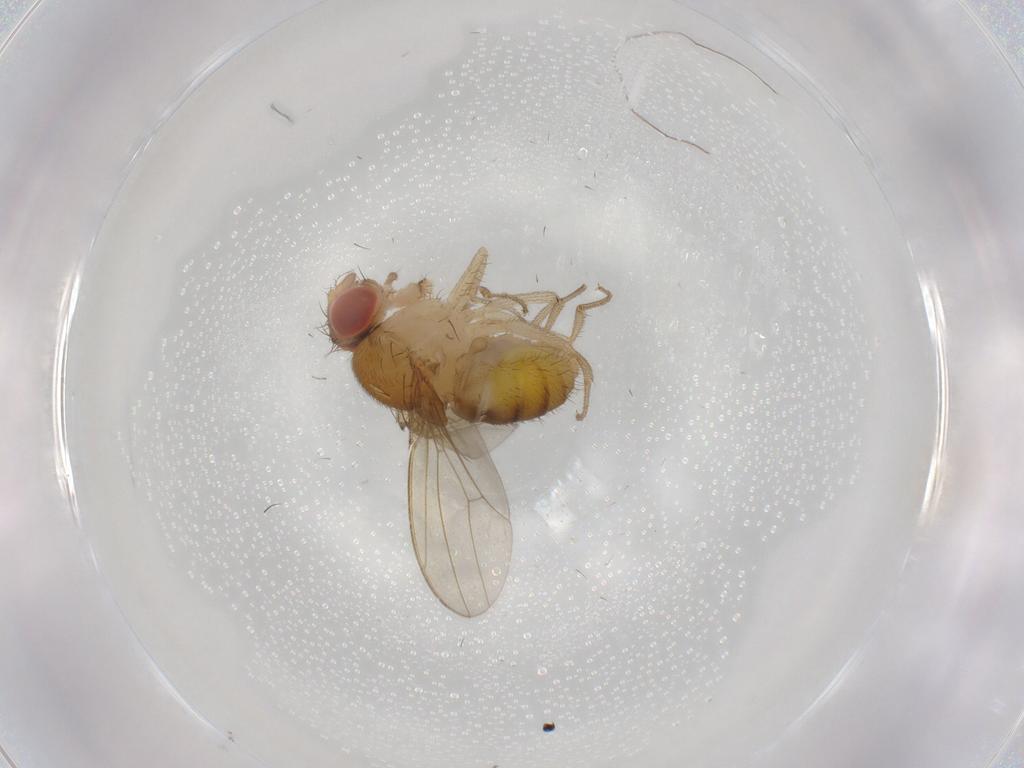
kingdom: Animalia
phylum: Arthropoda
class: Insecta
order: Diptera
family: Drosophilidae
